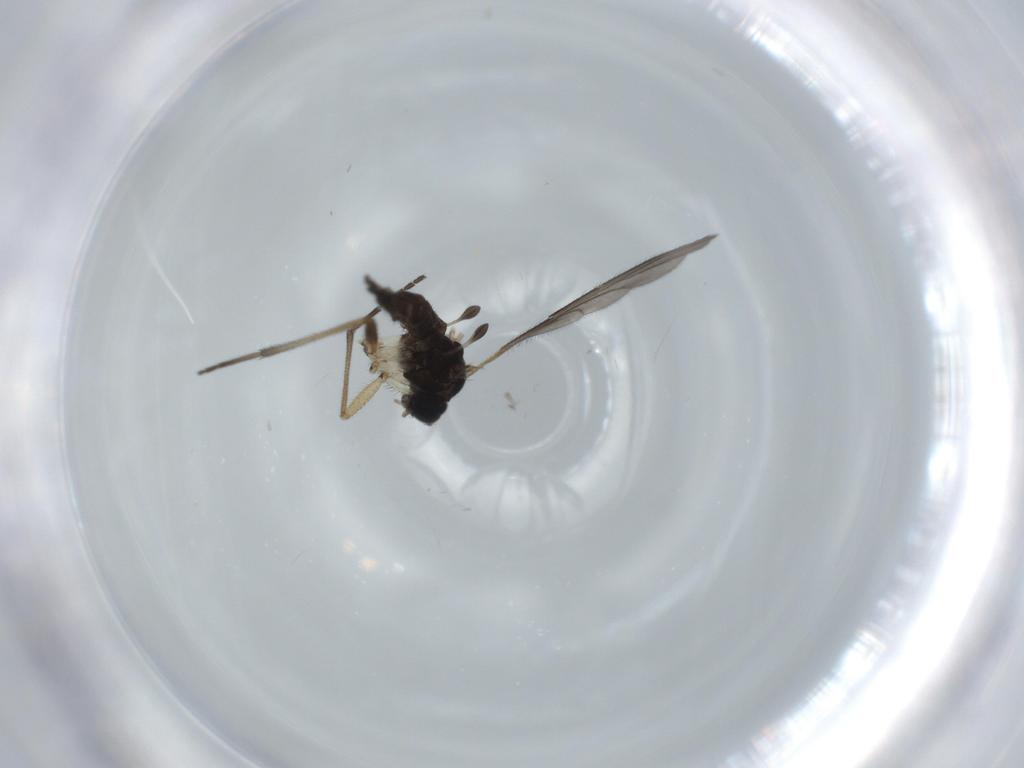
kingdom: Animalia
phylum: Arthropoda
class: Insecta
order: Diptera
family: Sciaridae
